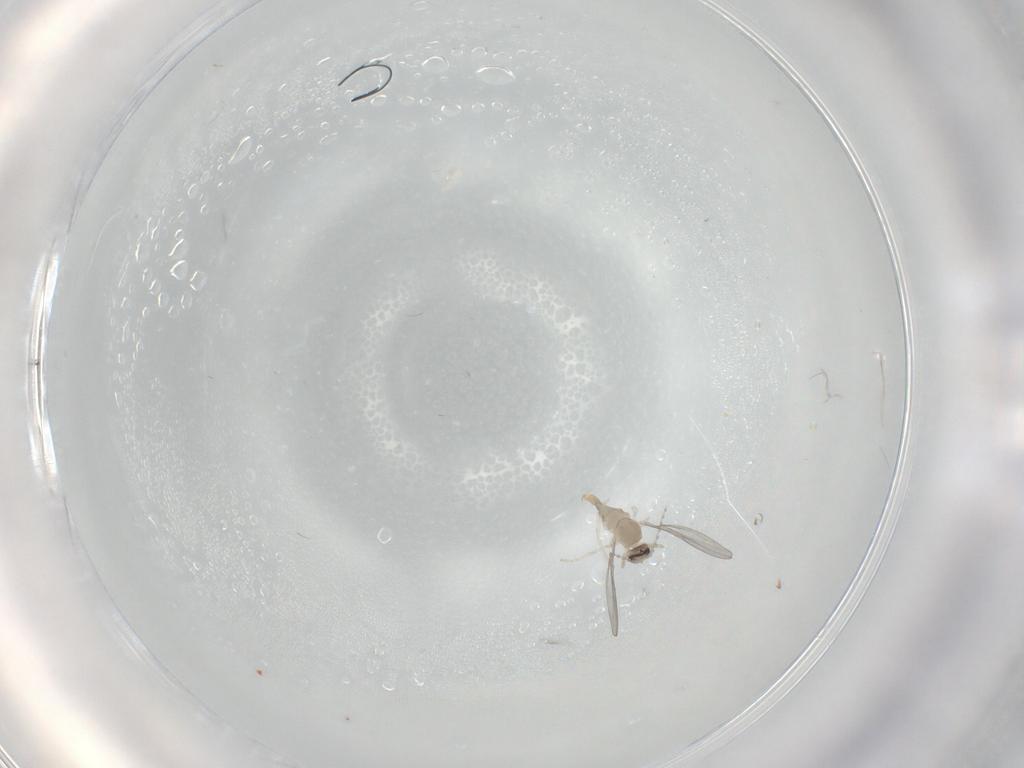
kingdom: Animalia
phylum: Arthropoda
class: Insecta
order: Diptera
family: Cecidomyiidae
